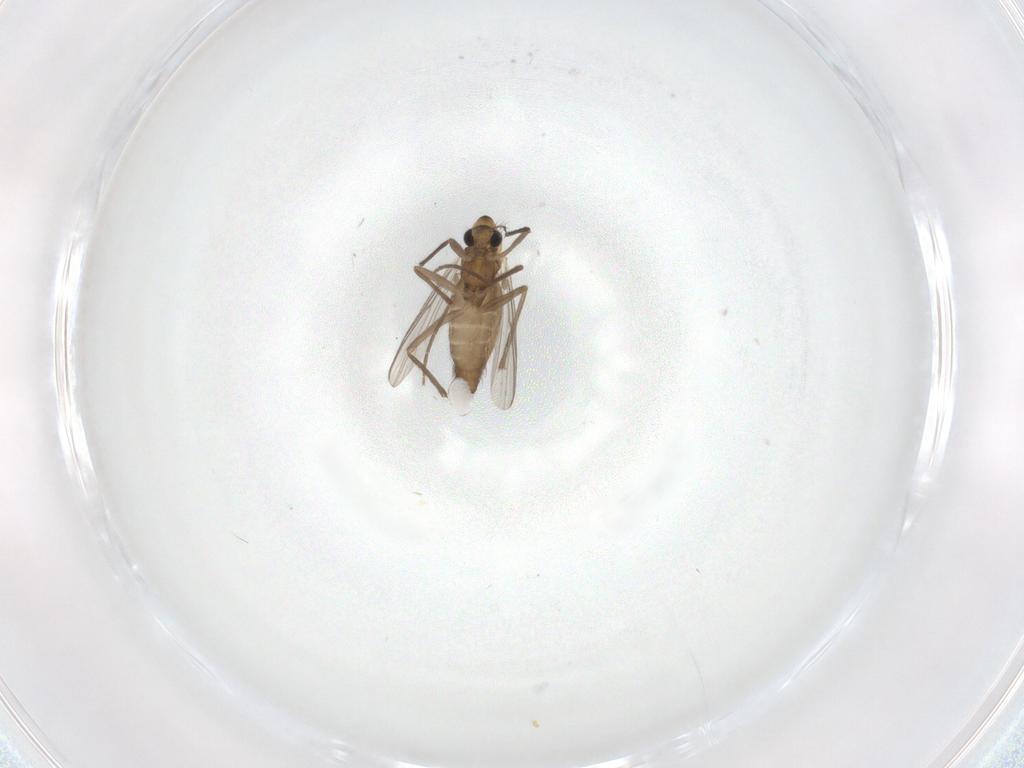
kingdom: Animalia
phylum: Arthropoda
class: Insecta
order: Diptera
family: Chironomidae
